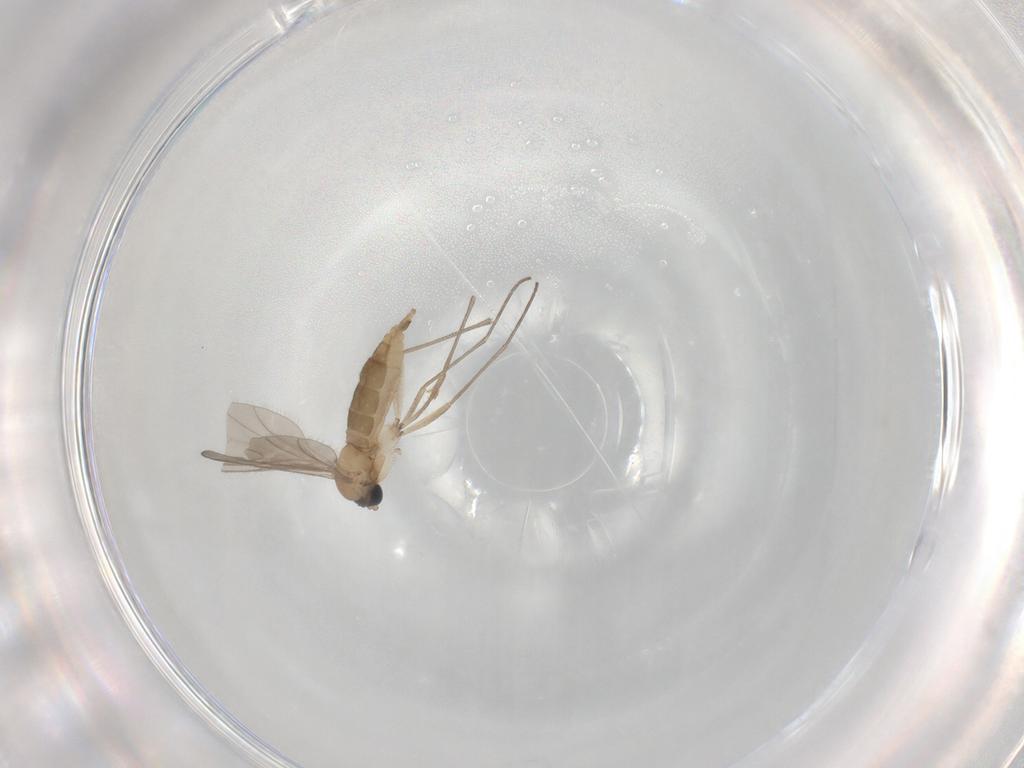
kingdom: Animalia
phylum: Arthropoda
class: Insecta
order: Diptera
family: Sciaridae
